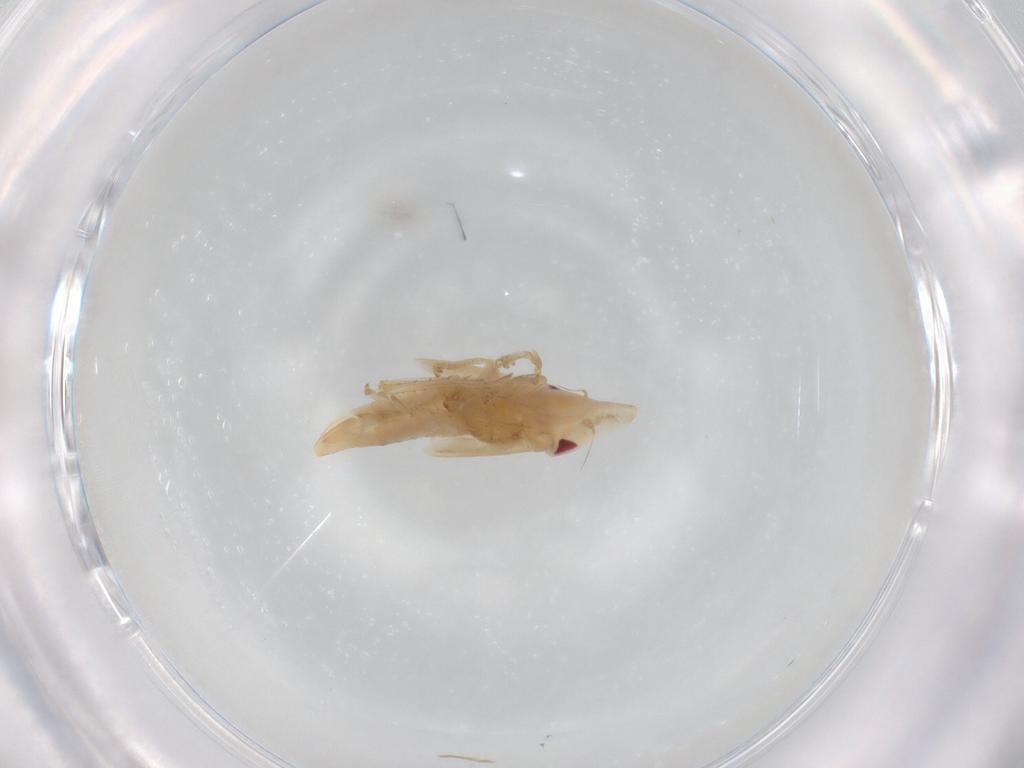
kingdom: Animalia
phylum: Arthropoda
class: Insecta
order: Hemiptera
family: Cicadellidae
